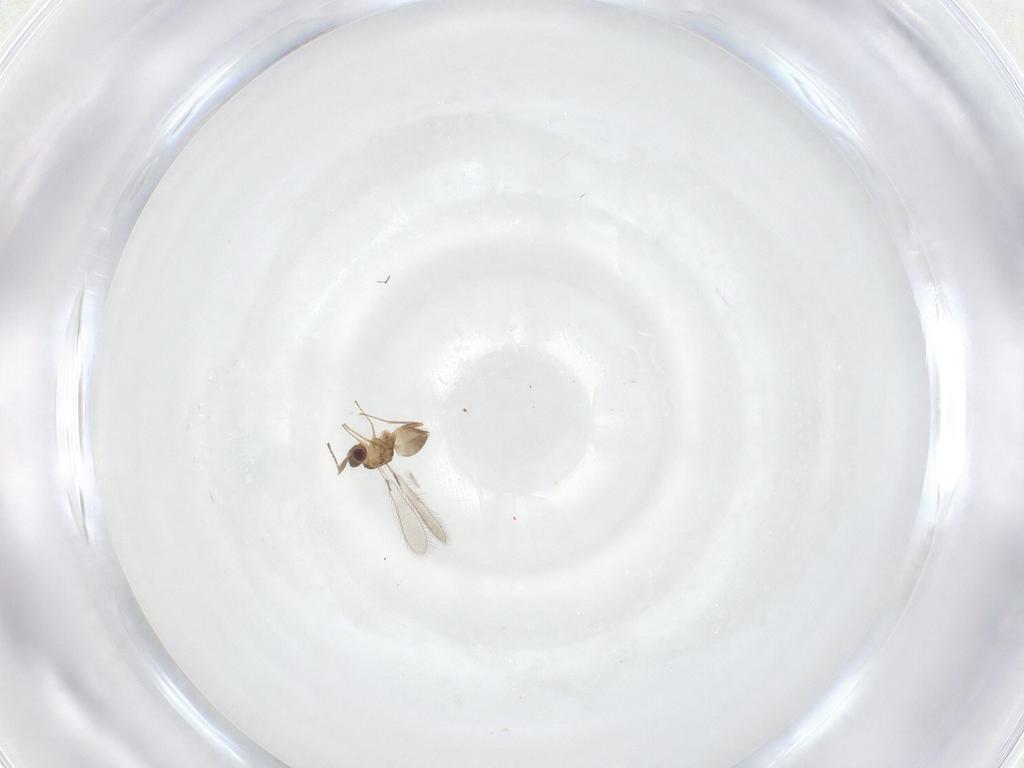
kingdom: Animalia
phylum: Arthropoda
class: Insecta
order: Hymenoptera
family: Mymaridae
